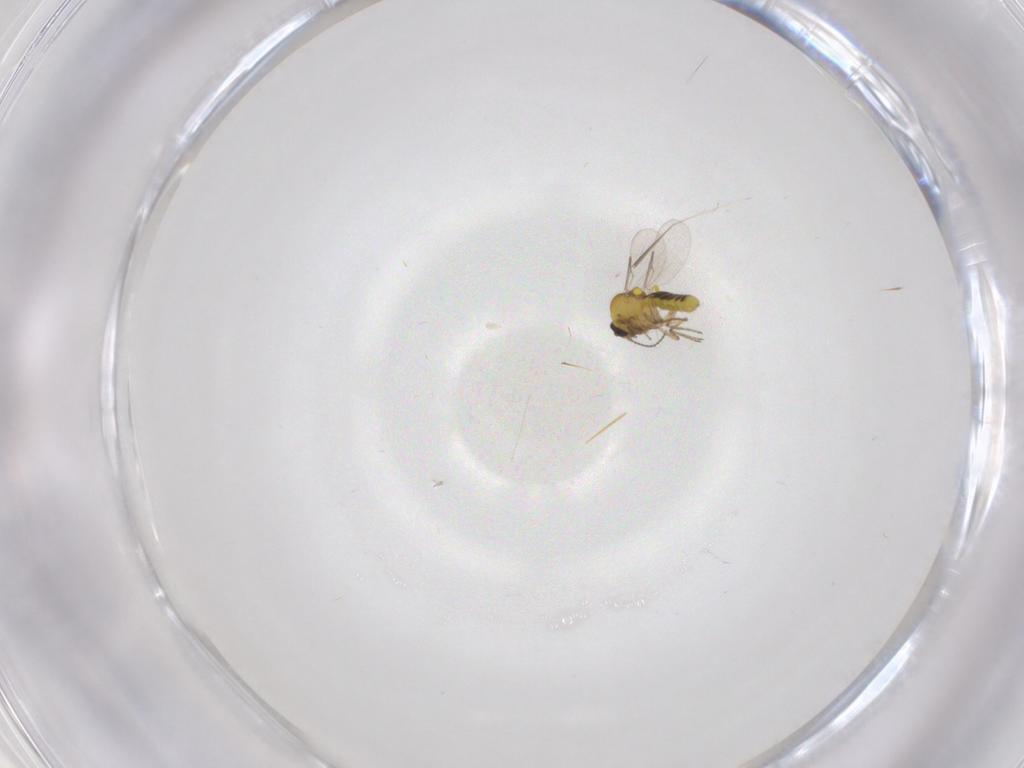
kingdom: Animalia
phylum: Arthropoda
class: Insecta
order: Diptera
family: Ceratopogonidae
